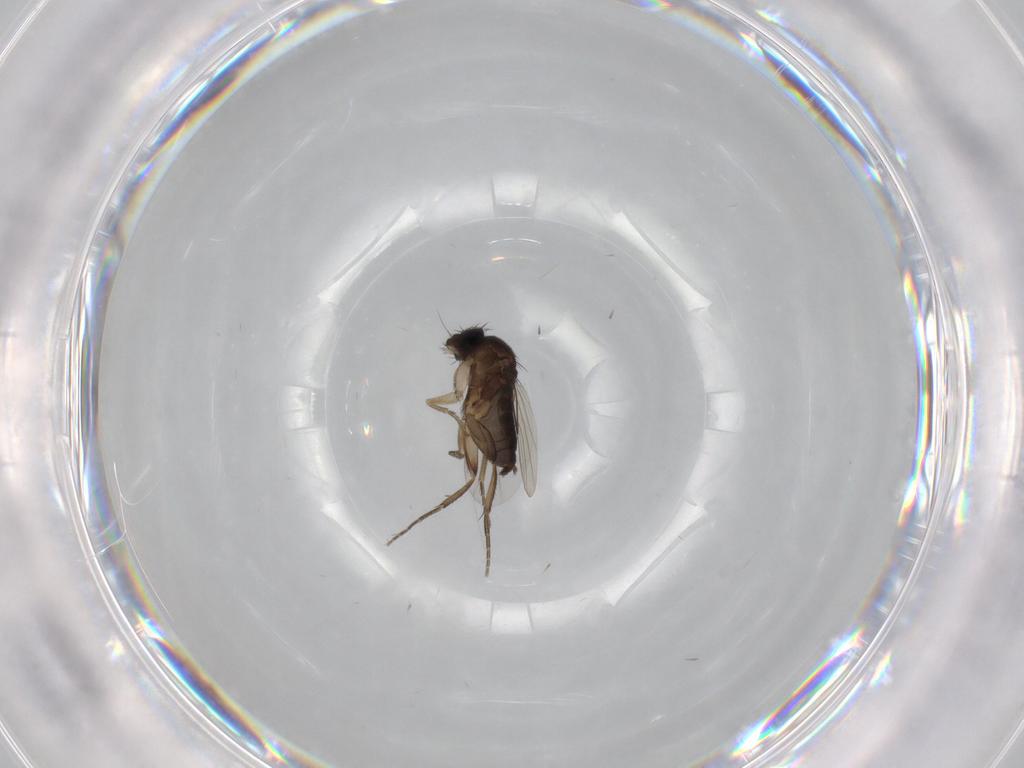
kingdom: Animalia
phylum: Arthropoda
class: Insecta
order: Diptera
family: Phoridae
